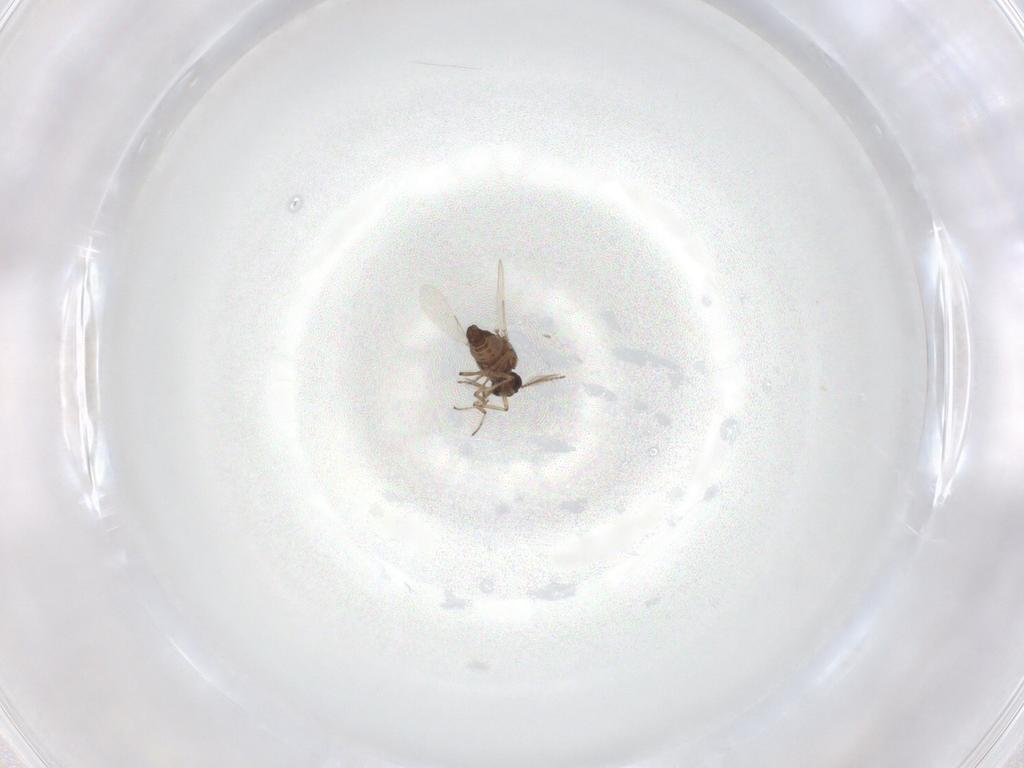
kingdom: Animalia
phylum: Arthropoda
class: Insecta
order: Diptera
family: Ceratopogonidae
